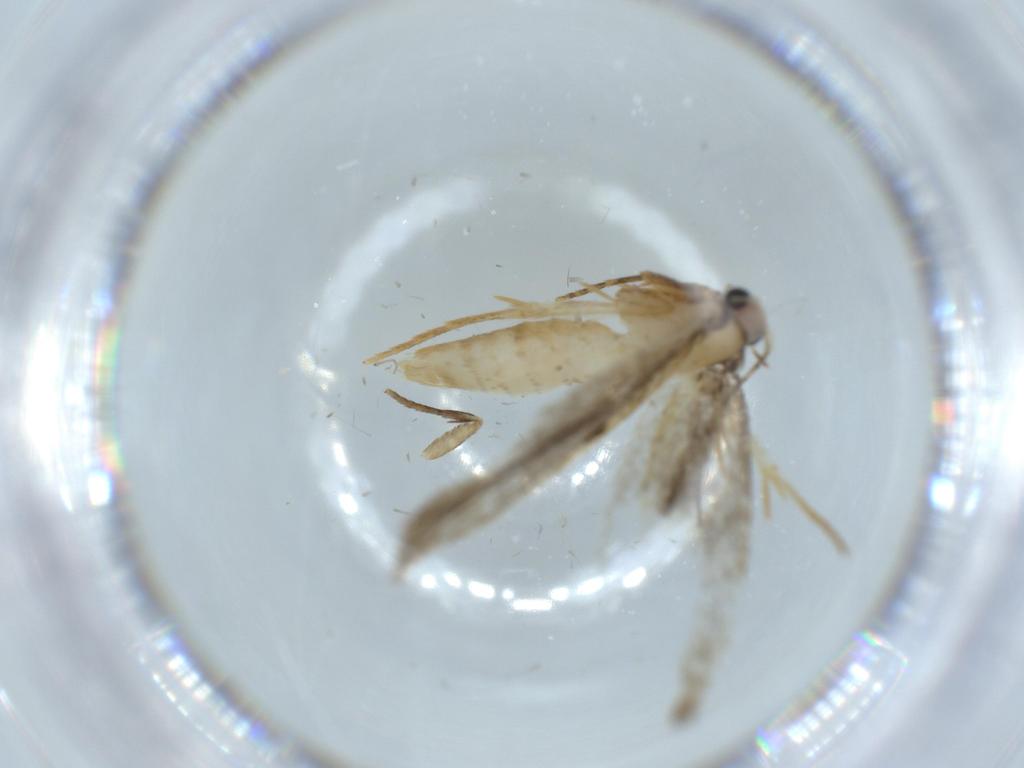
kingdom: Animalia
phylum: Arthropoda
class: Insecta
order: Lepidoptera
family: Tineidae
